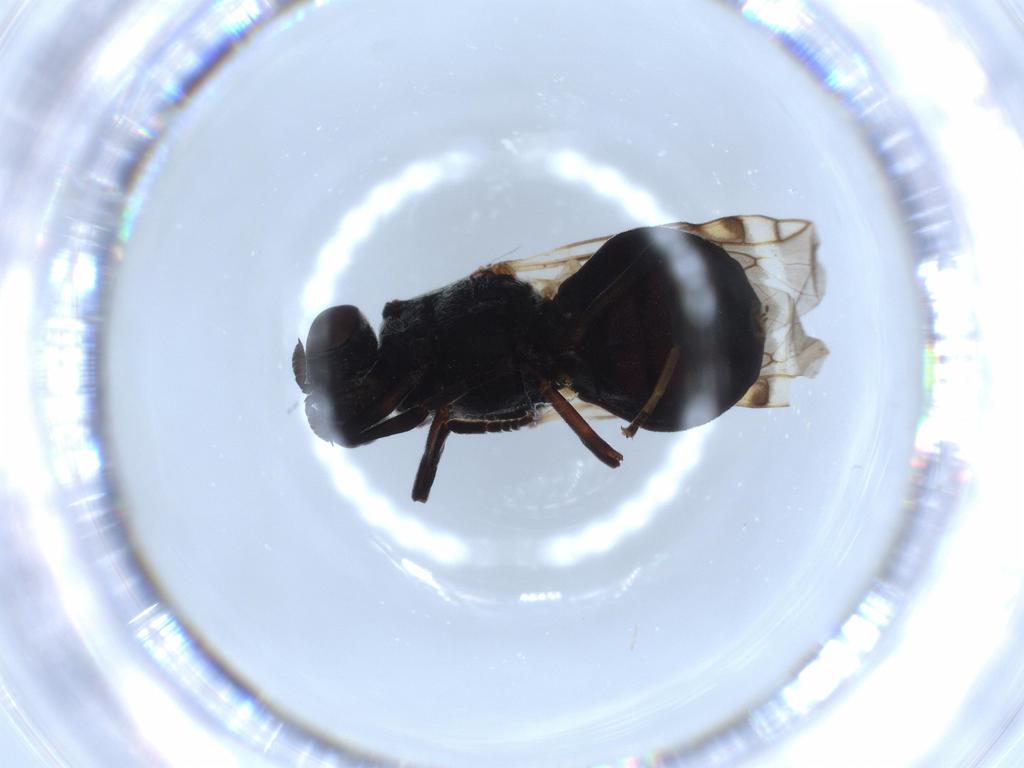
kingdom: Animalia
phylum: Arthropoda
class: Insecta
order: Diptera
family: Stratiomyidae
